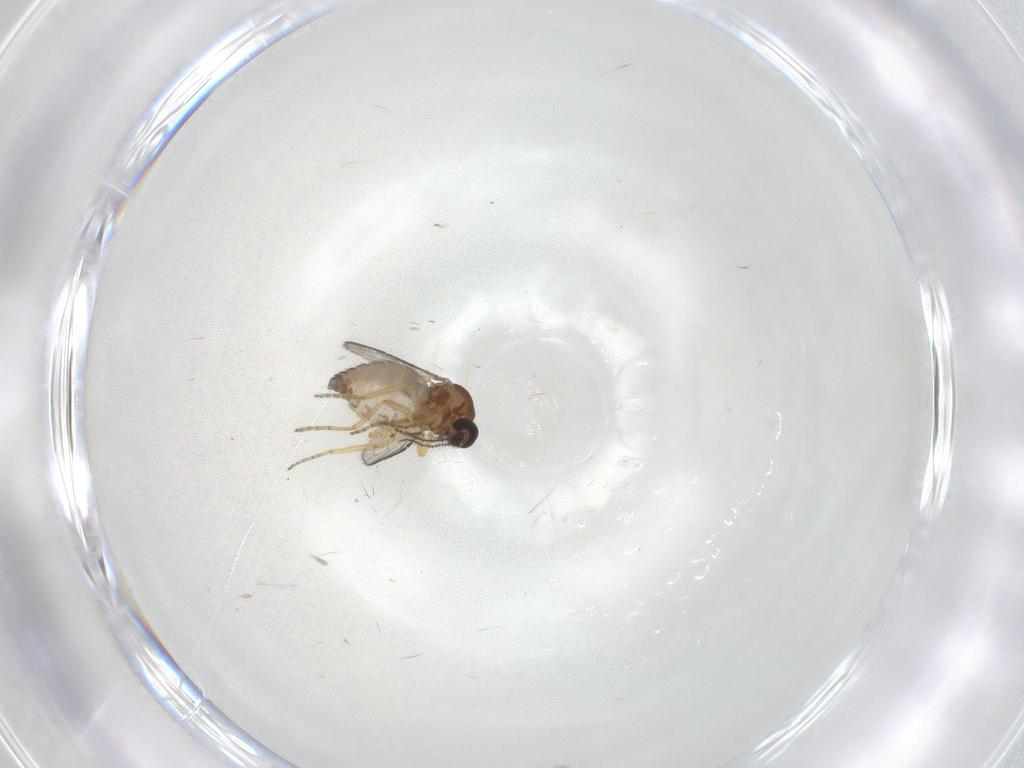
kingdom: Animalia
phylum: Arthropoda
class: Insecta
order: Diptera
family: Ceratopogonidae
